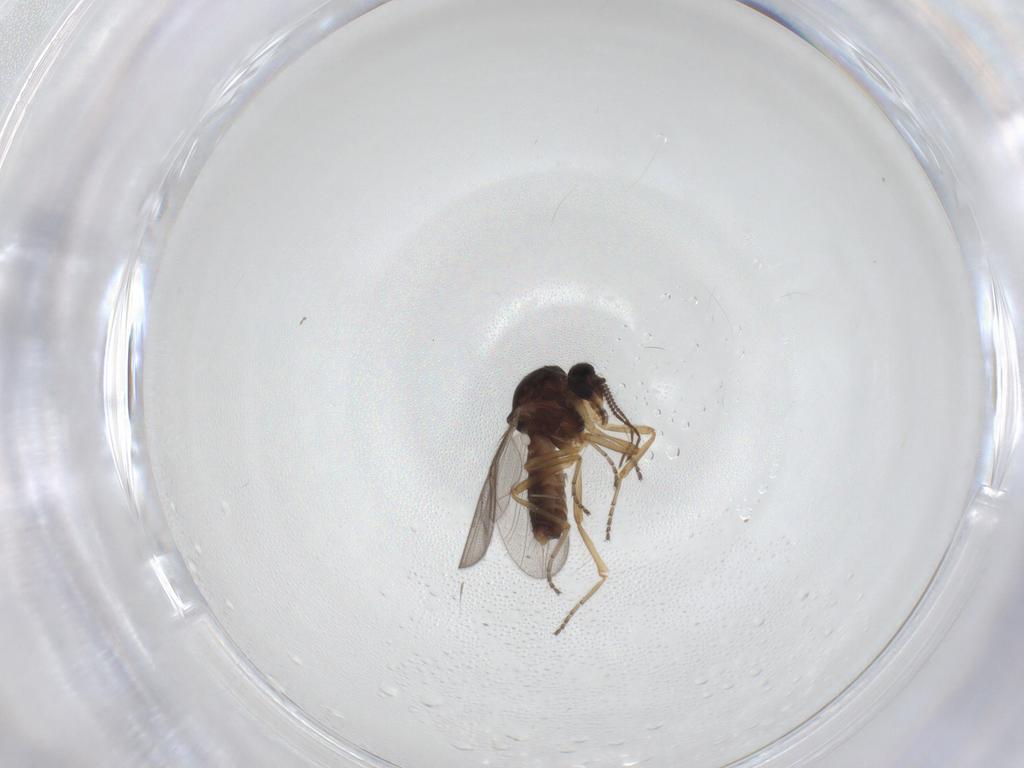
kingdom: Animalia
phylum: Arthropoda
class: Insecta
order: Diptera
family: Ceratopogonidae
